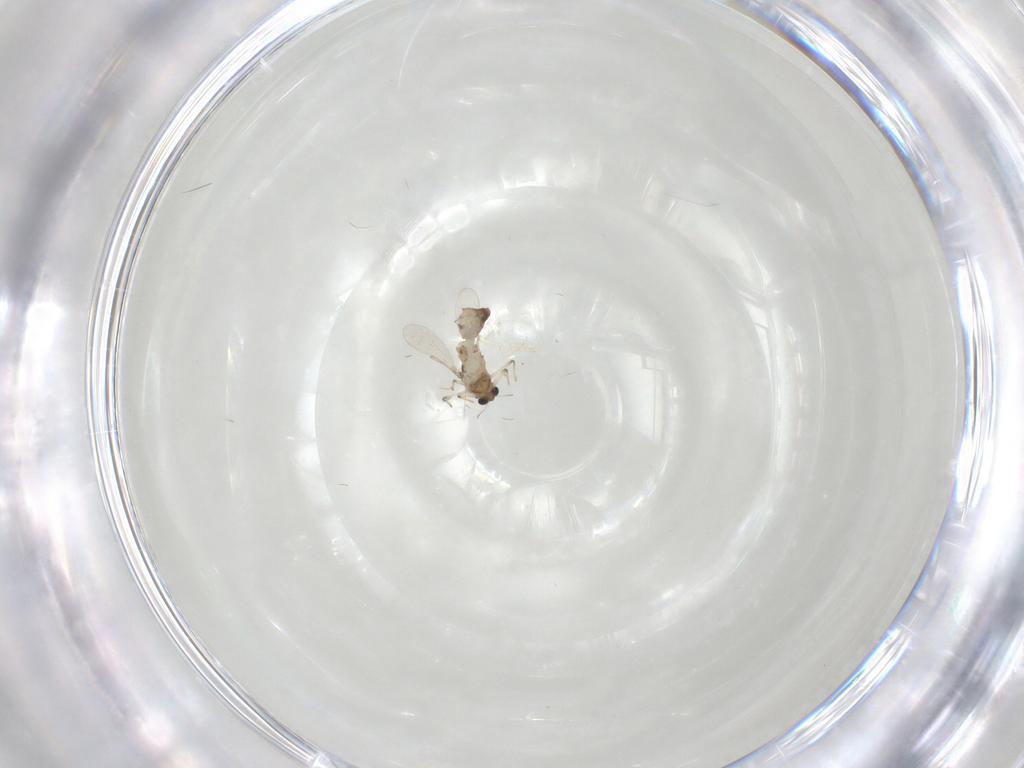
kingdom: Animalia
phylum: Arthropoda
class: Insecta
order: Diptera
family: Chironomidae
